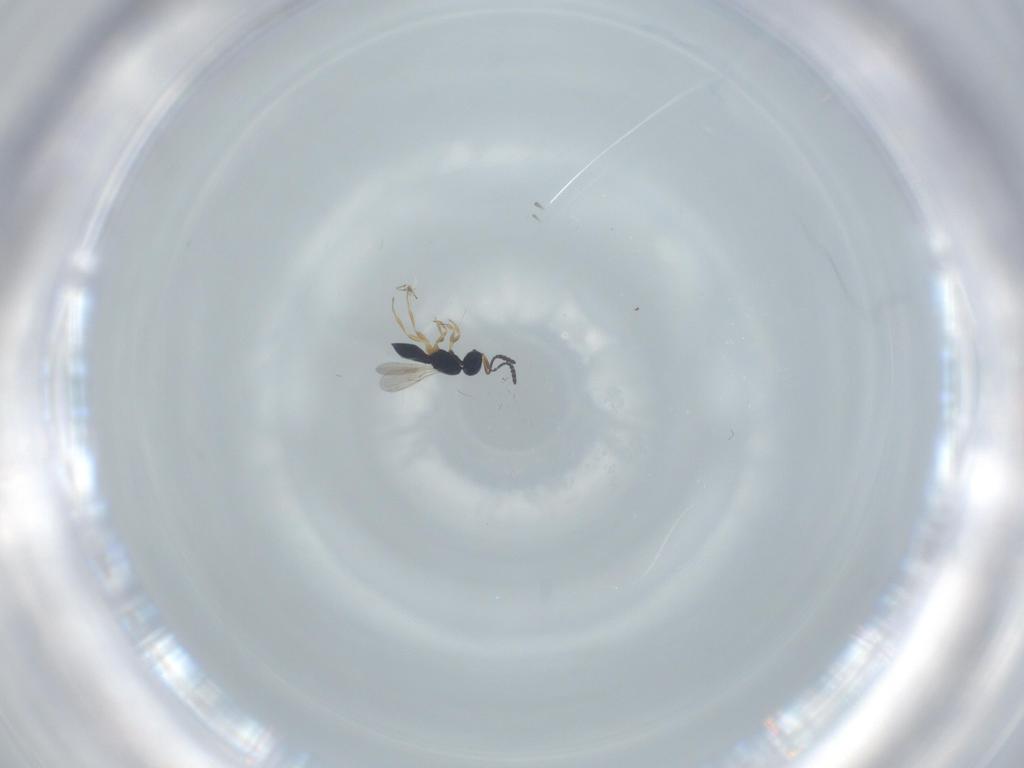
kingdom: Animalia
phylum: Arthropoda
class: Insecta
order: Hymenoptera
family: Scelionidae
